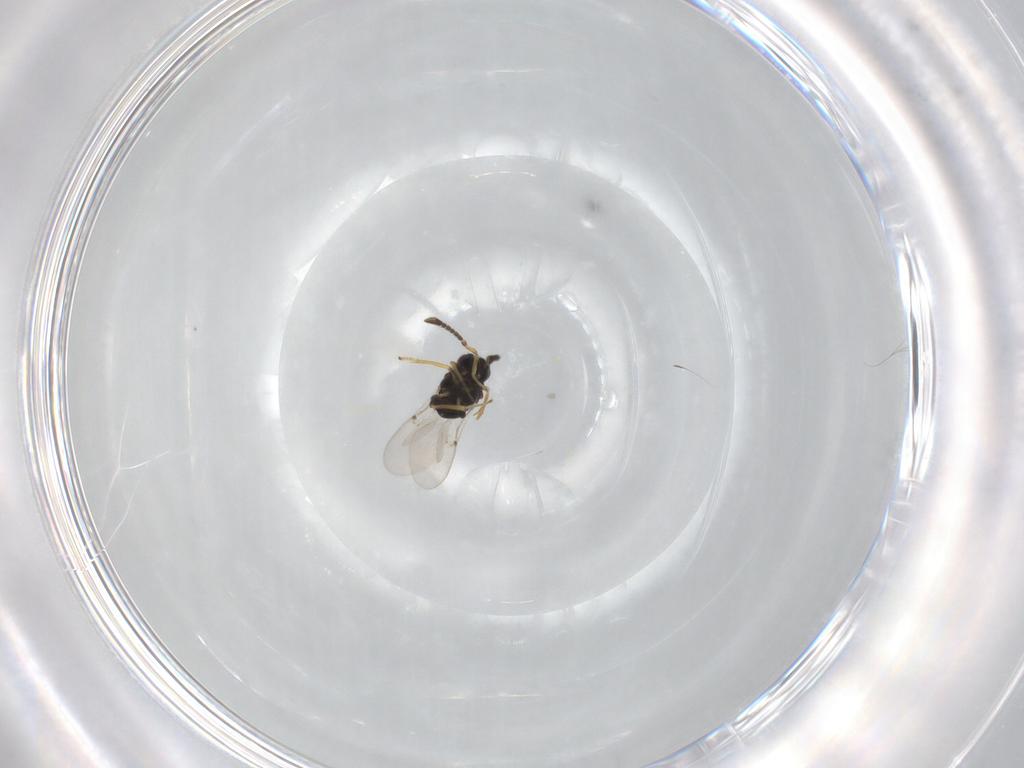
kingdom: Animalia
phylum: Arthropoda
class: Insecta
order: Hymenoptera
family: Encyrtidae
